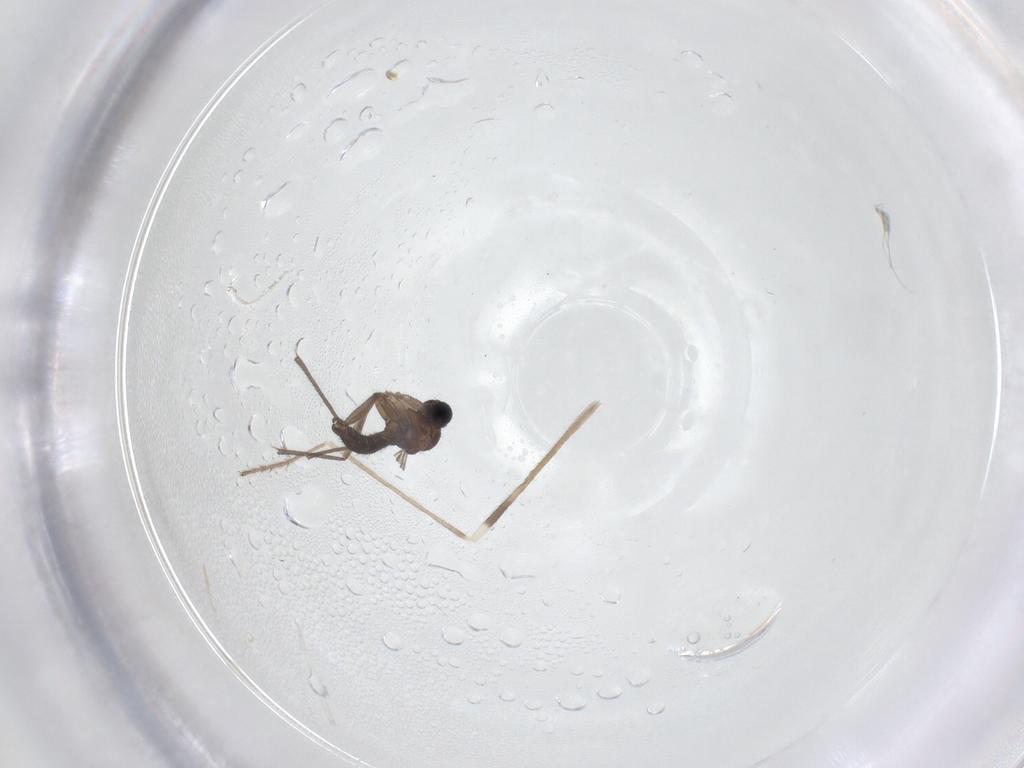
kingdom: Animalia
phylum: Arthropoda
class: Insecta
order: Diptera
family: Limoniidae
